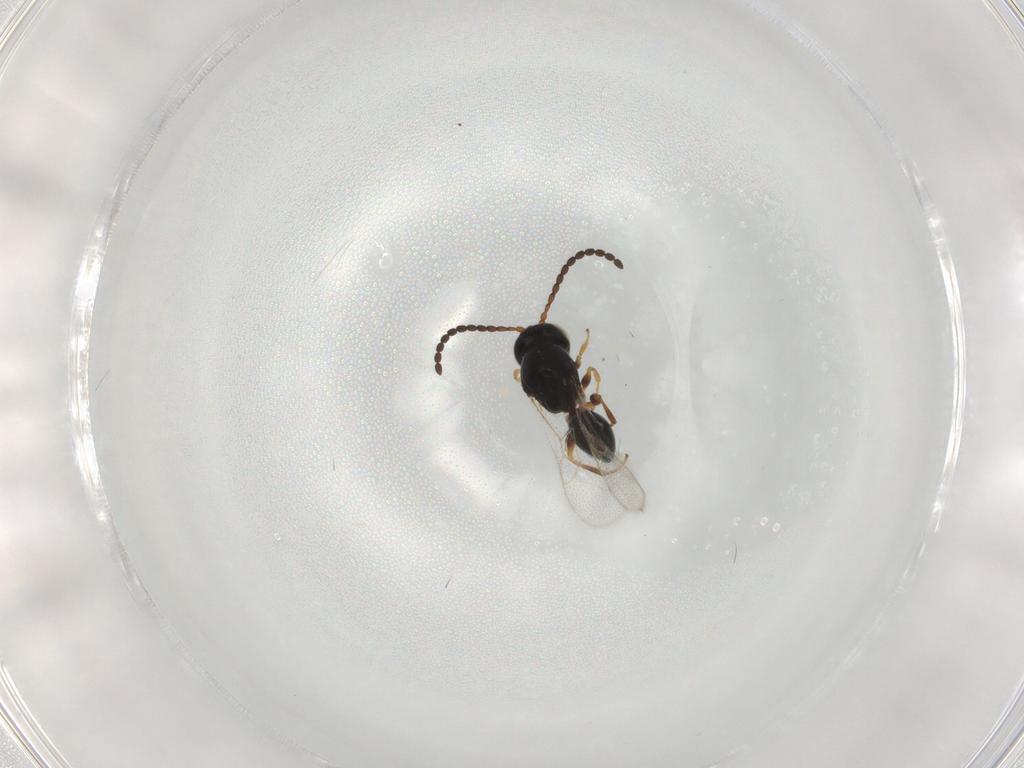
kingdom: Animalia
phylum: Arthropoda
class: Insecta
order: Hymenoptera
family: Figitidae
